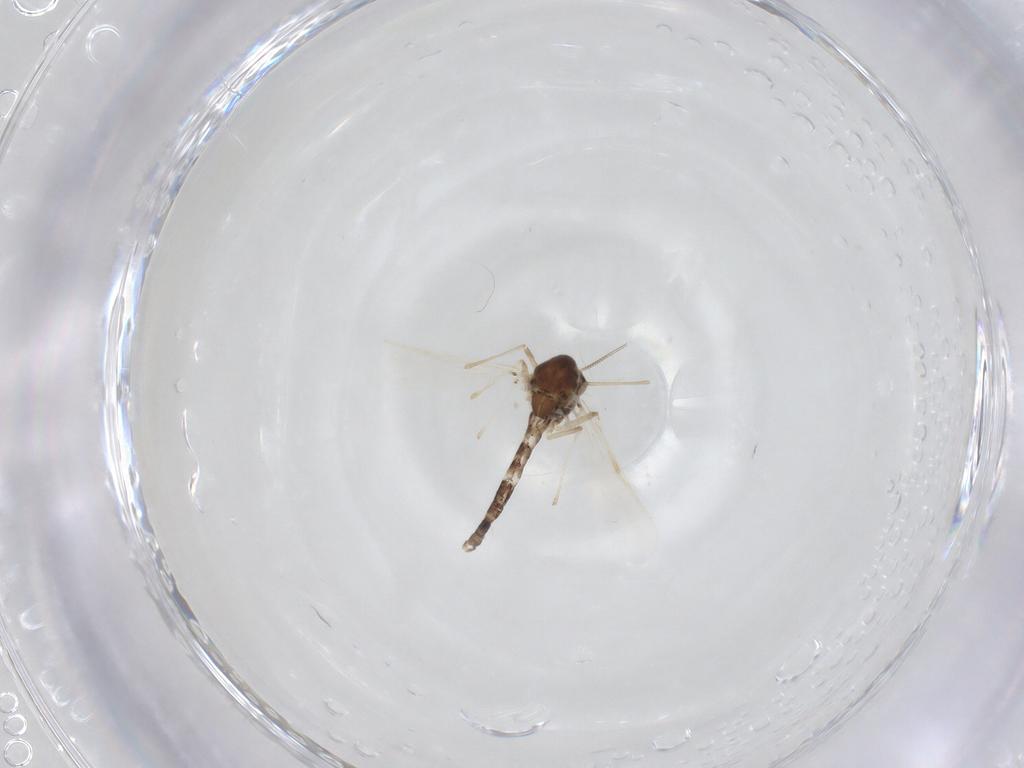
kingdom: Animalia
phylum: Arthropoda
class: Insecta
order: Diptera
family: Chironomidae
